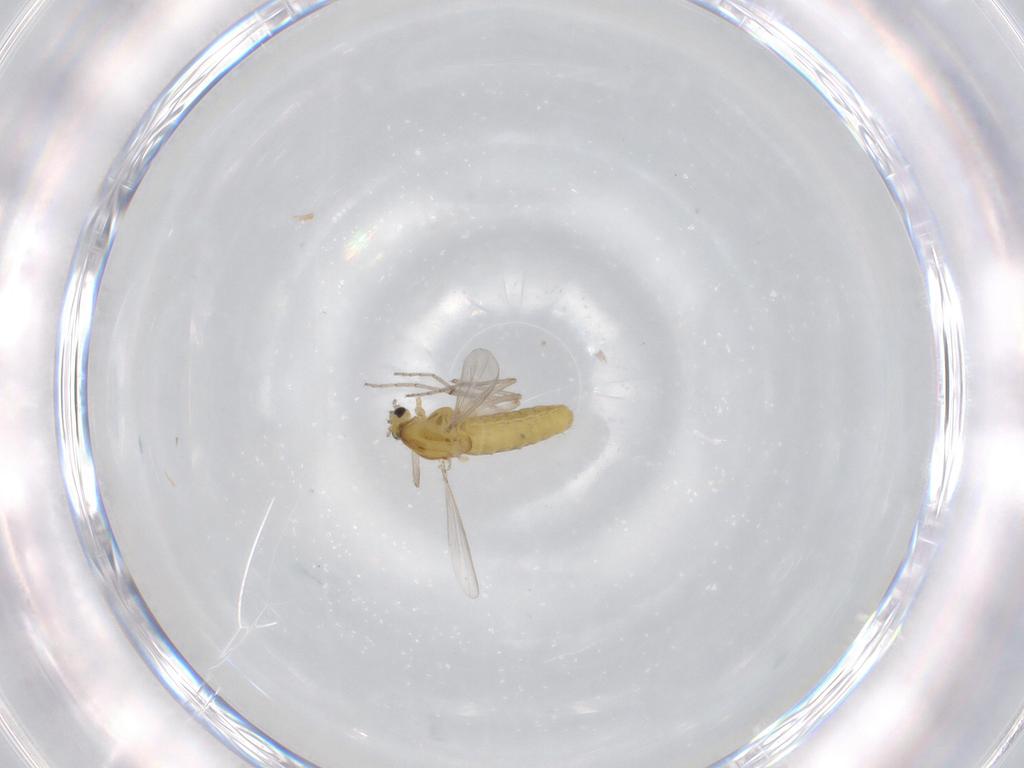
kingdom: Animalia
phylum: Arthropoda
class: Insecta
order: Diptera
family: Chironomidae
